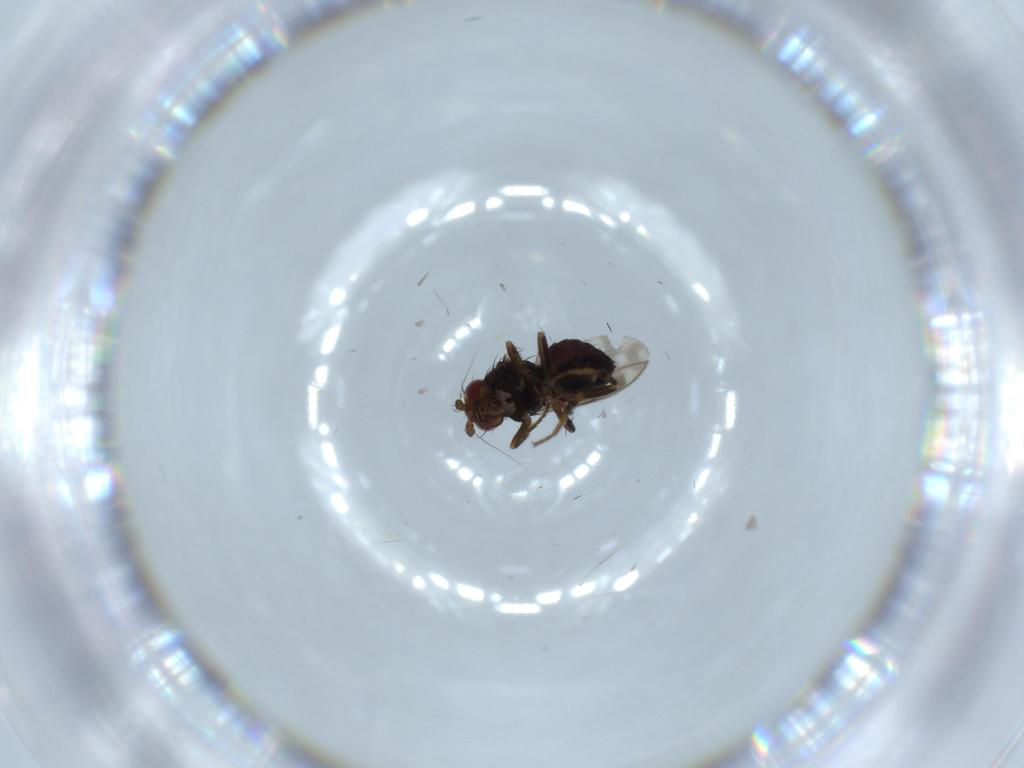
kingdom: Animalia
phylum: Arthropoda
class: Insecta
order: Diptera
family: Sphaeroceridae
